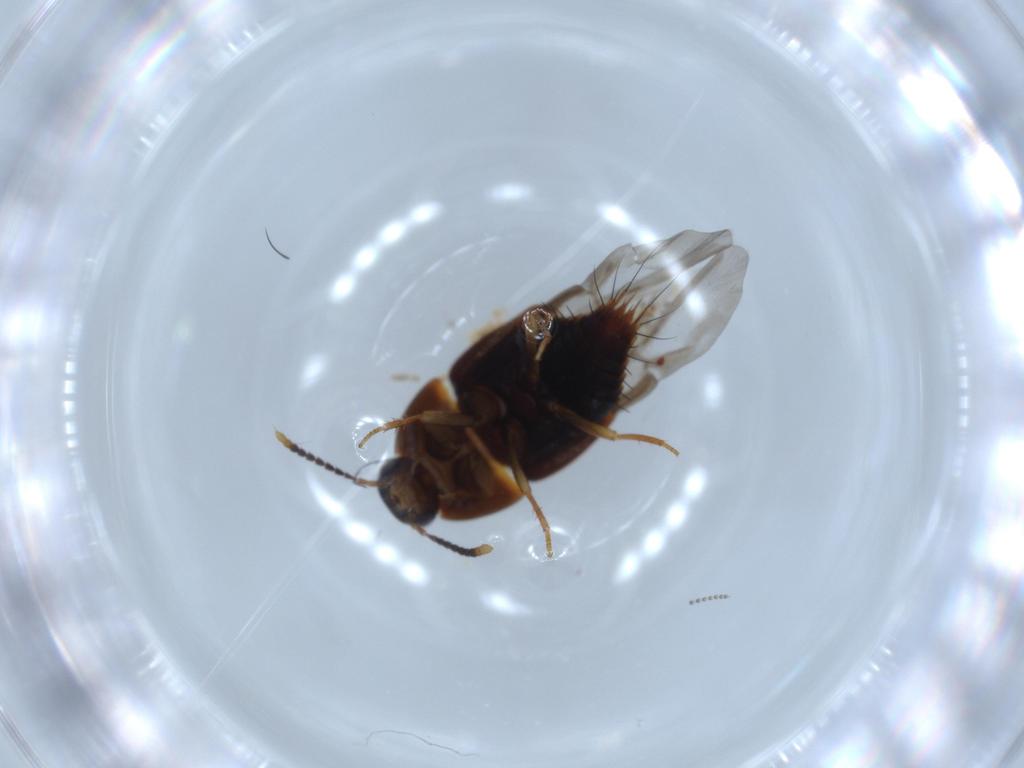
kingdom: Animalia
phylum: Arthropoda
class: Insecta
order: Coleoptera
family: Staphylinidae
